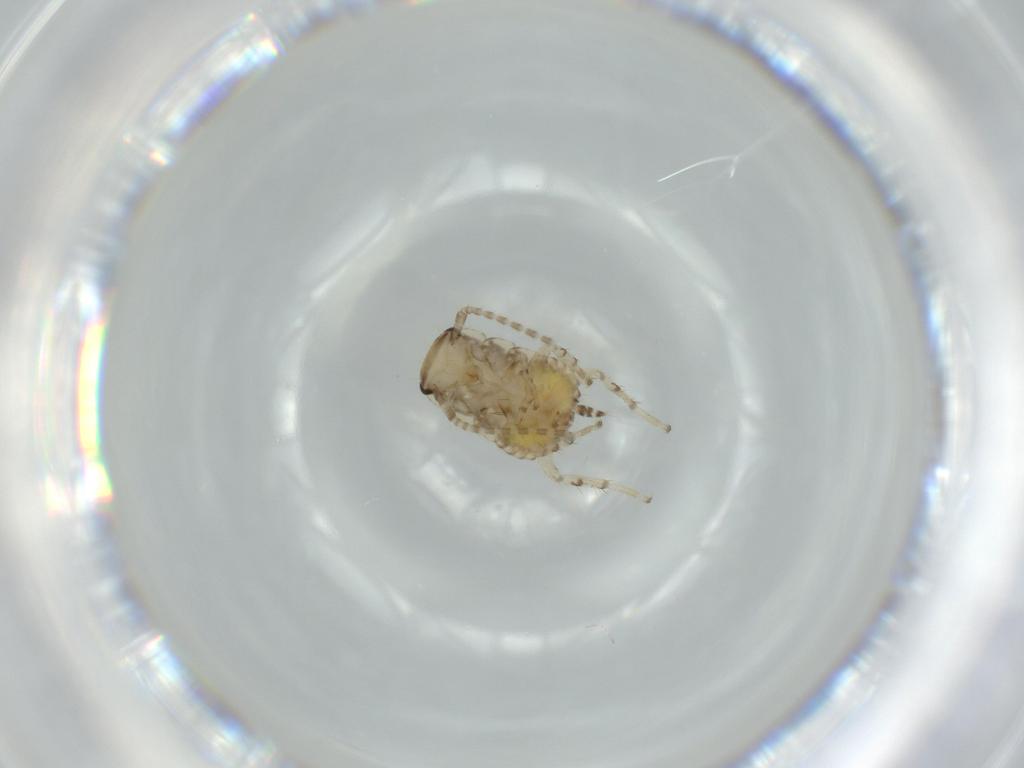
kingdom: Animalia
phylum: Arthropoda
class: Insecta
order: Blattodea
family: Ectobiidae
